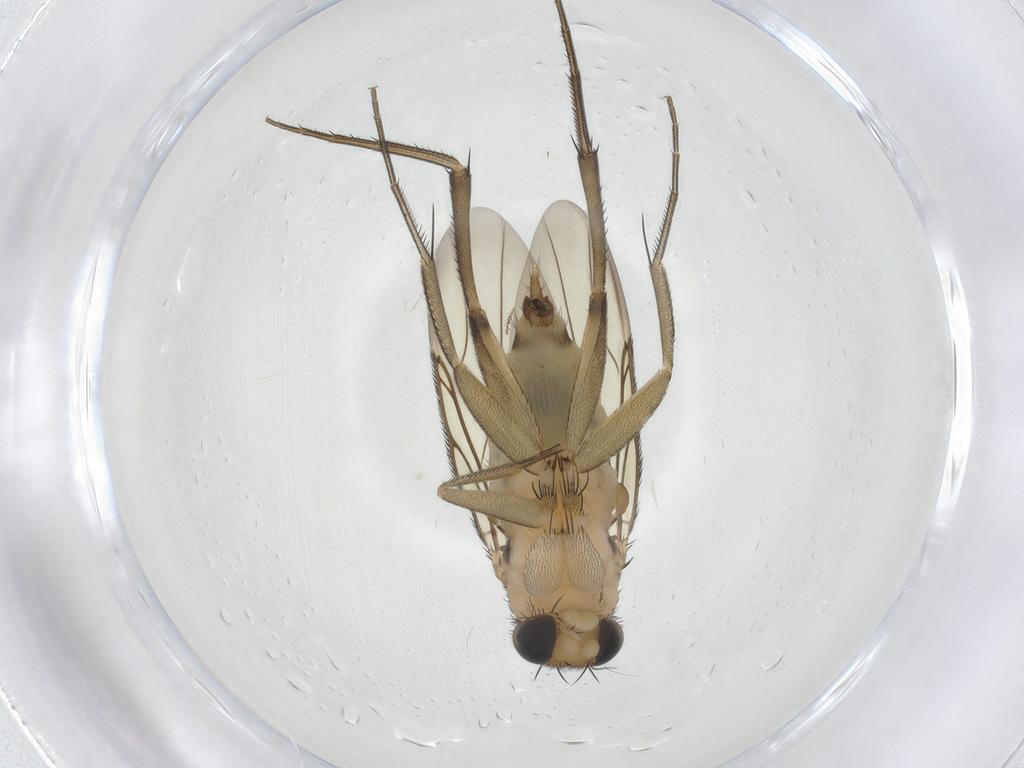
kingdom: Animalia
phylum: Arthropoda
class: Insecta
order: Diptera
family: Phoridae
